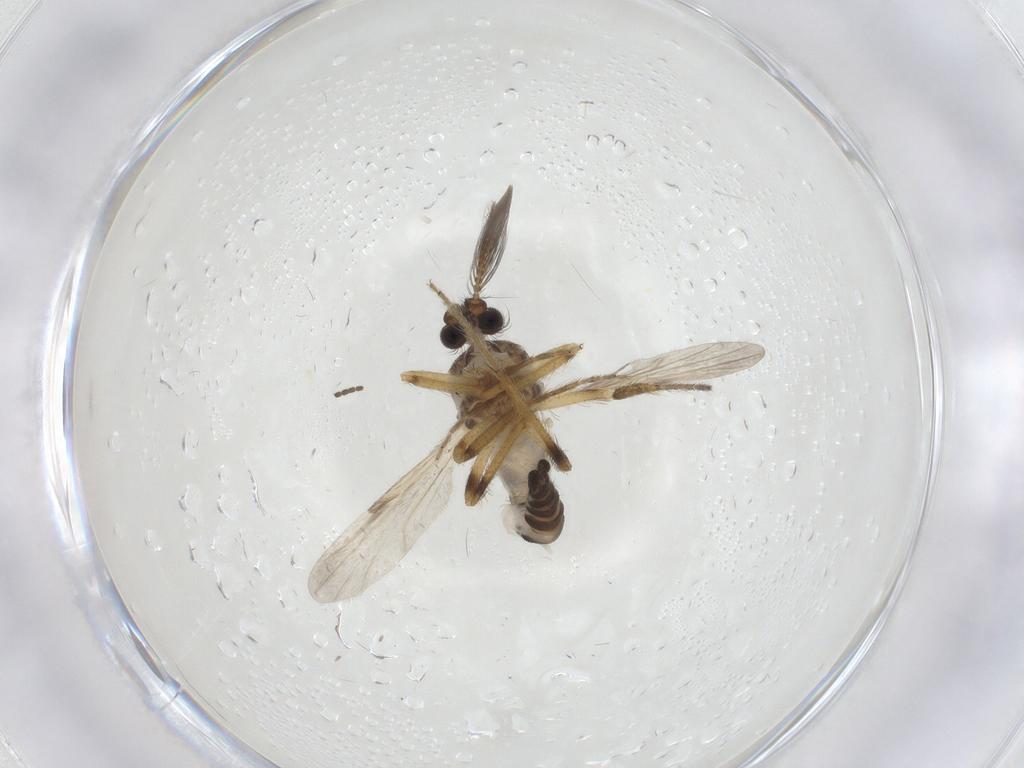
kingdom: Animalia
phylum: Arthropoda
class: Insecta
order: Diptera
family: Ceratopogonidae
